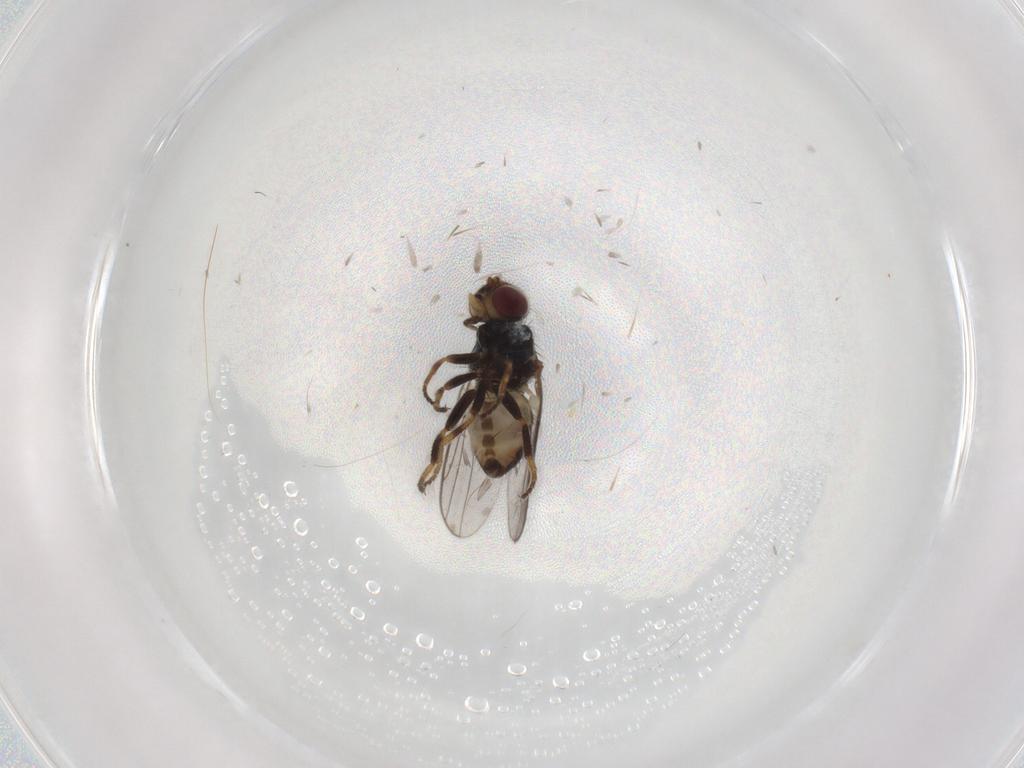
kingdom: Animalia
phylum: Arthropoda
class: Insecta
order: Diptera
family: Chloropidae
